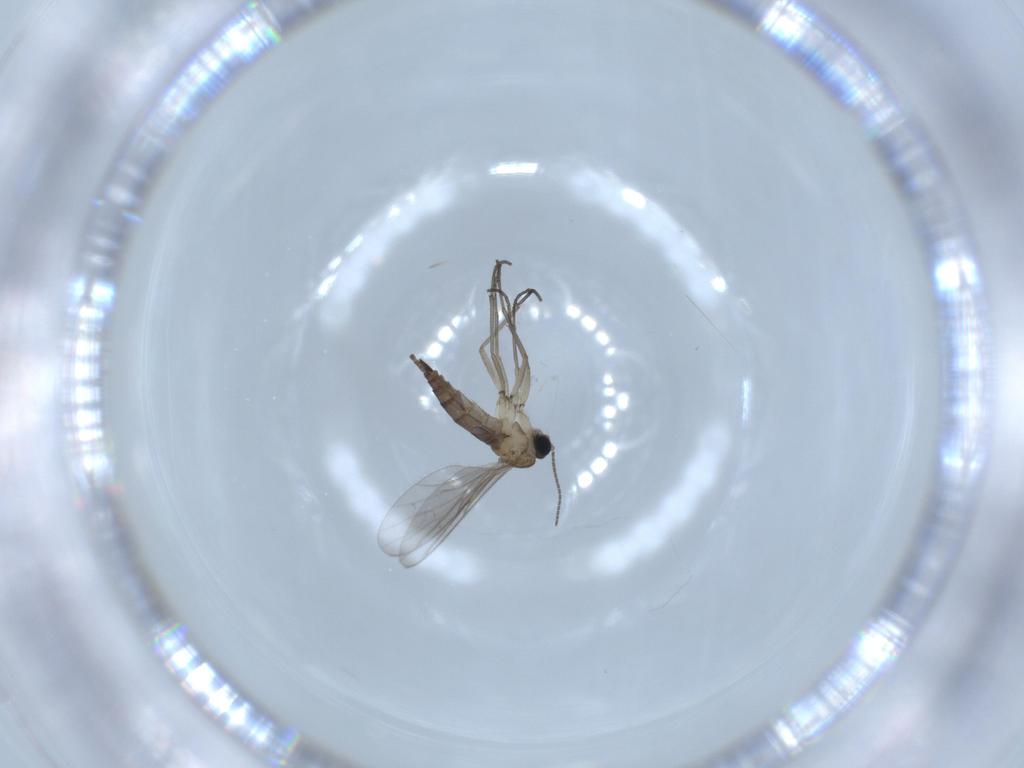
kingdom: Animalia
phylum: Arthropoda
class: Insecta
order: Diptera
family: Sciaridae
